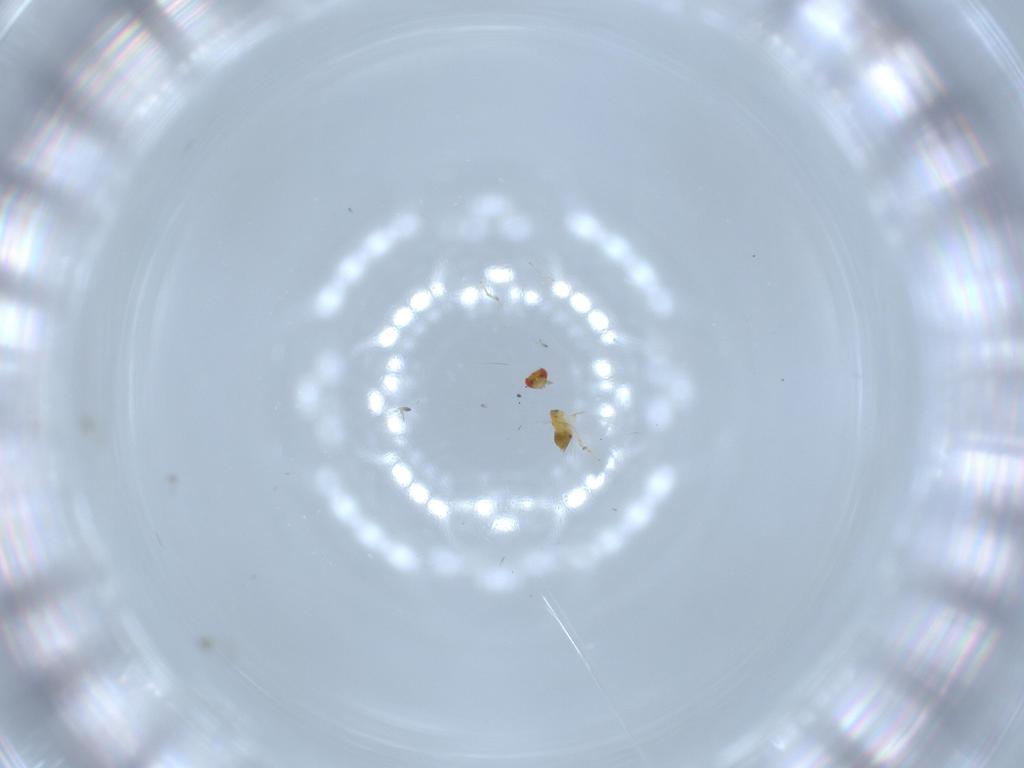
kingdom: Animalia
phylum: Arthropoda
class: Insecta
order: Hymenoptera
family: Trichogrammatidae
